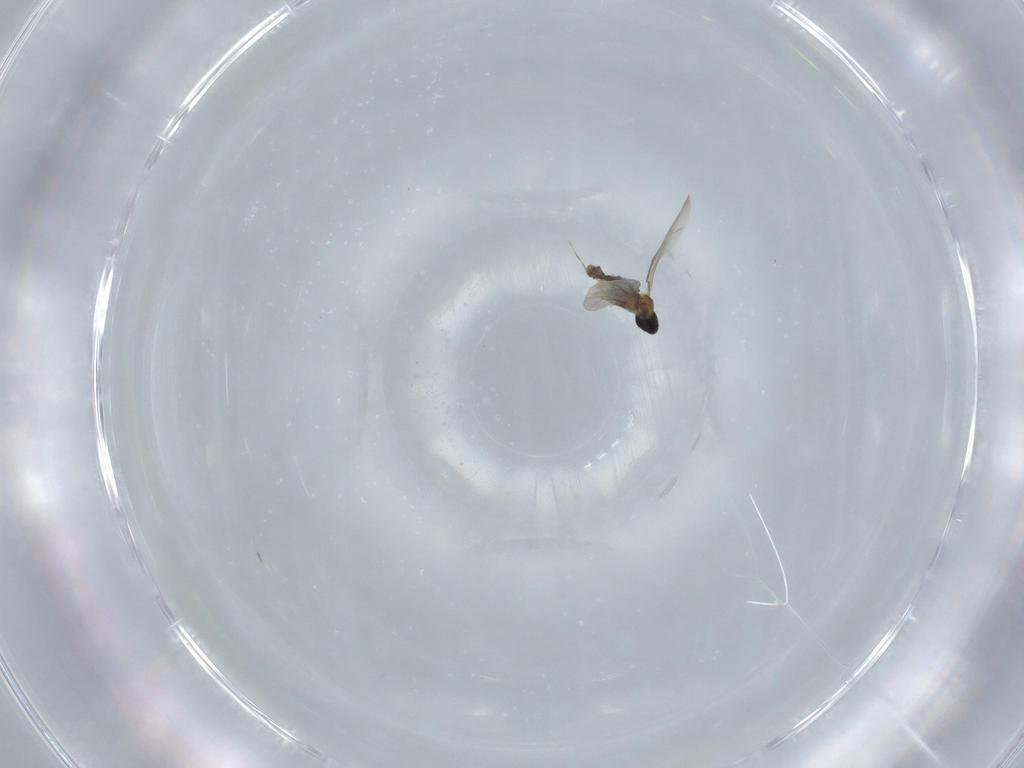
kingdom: Animalia
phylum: Arthropoda
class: Insecta
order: Diptera
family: Cecidomyiidae
